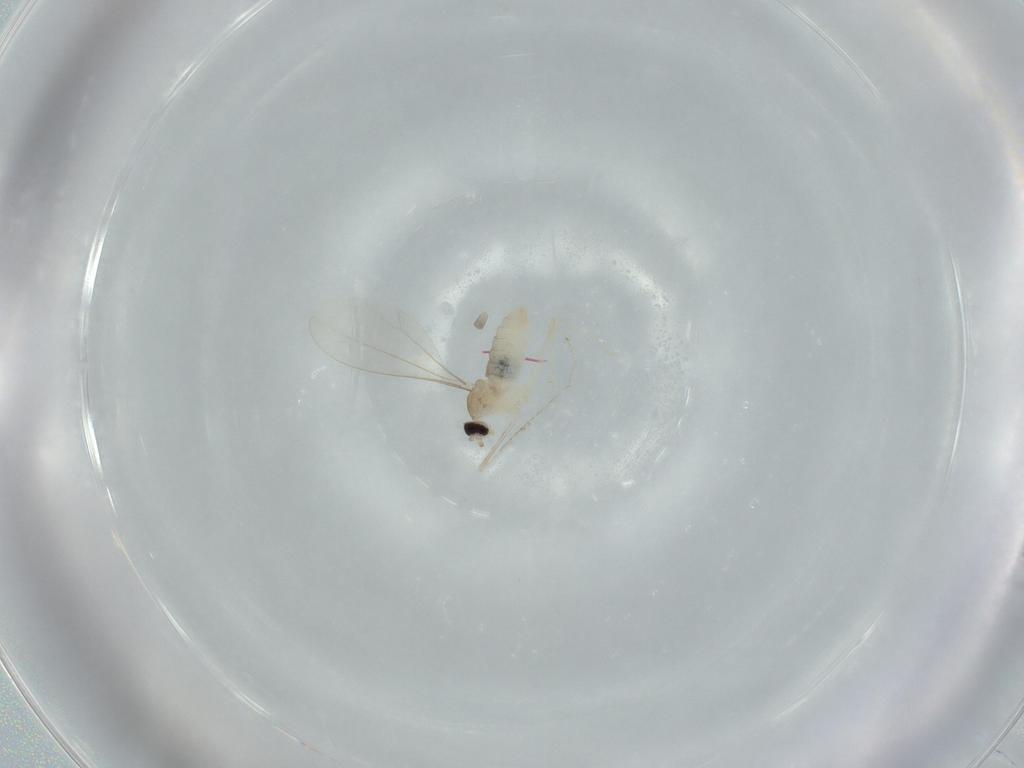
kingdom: Animalia
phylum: Arthropoda
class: Insecta
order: Diptera
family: Cecidomyiidae
